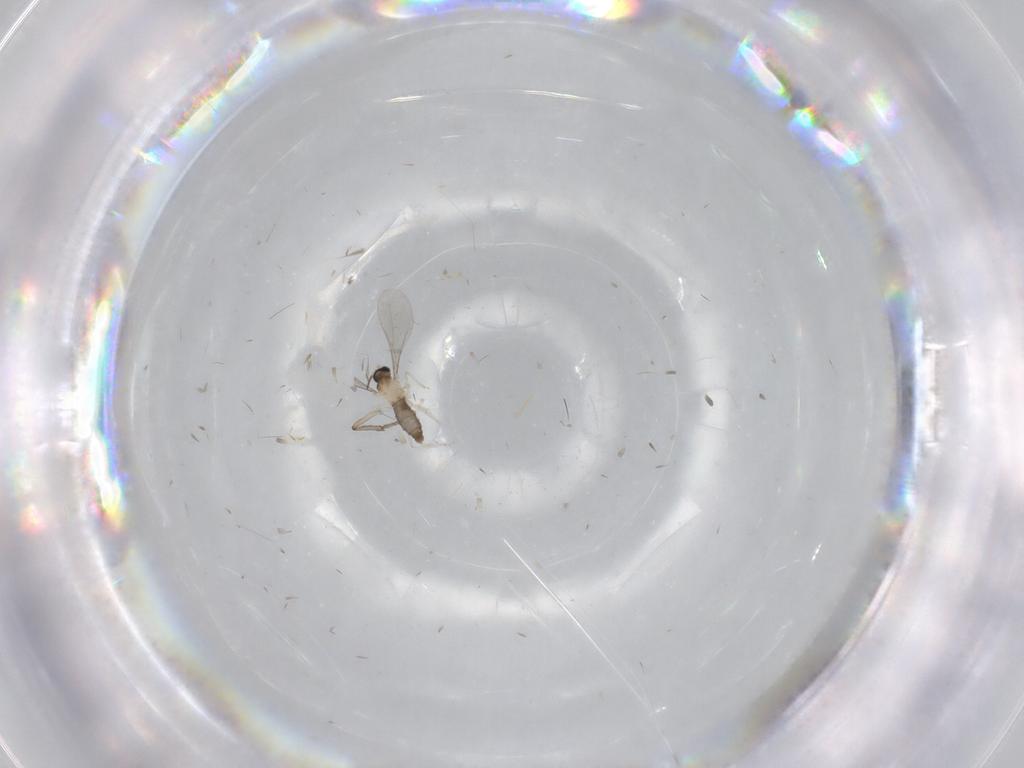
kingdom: Animalia
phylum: Arthropoda
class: Insecta
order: Diptera
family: Psychodidae
